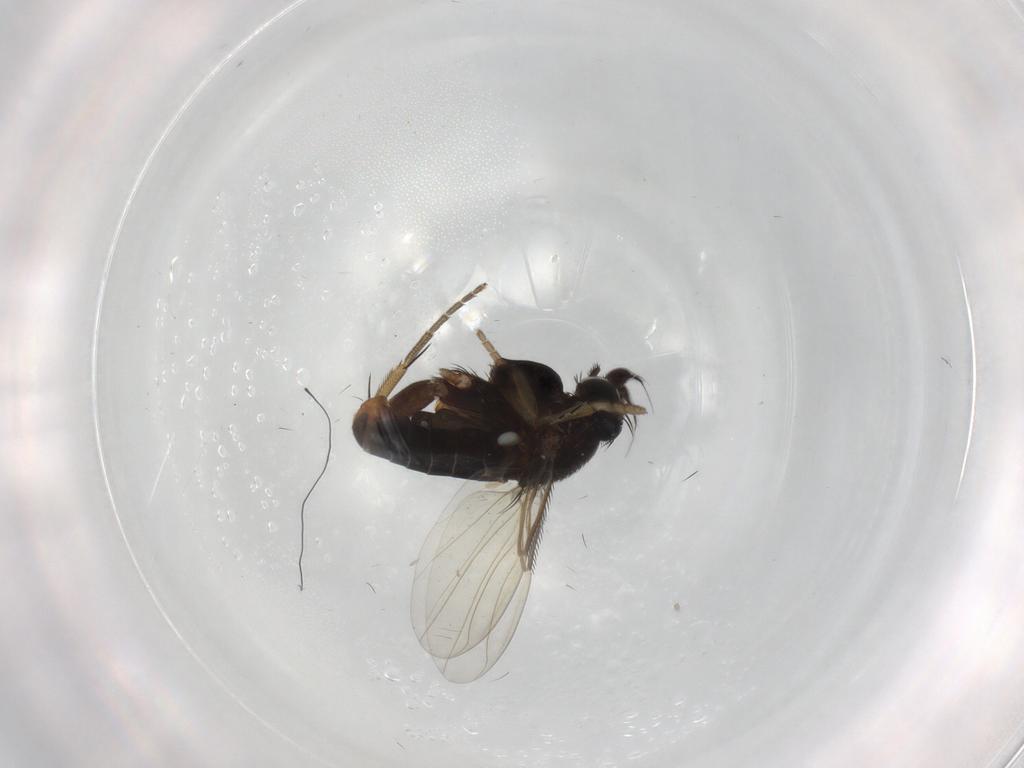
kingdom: Animalia
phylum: Arthropoda
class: Insecta
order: Diptera
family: Phoridae
